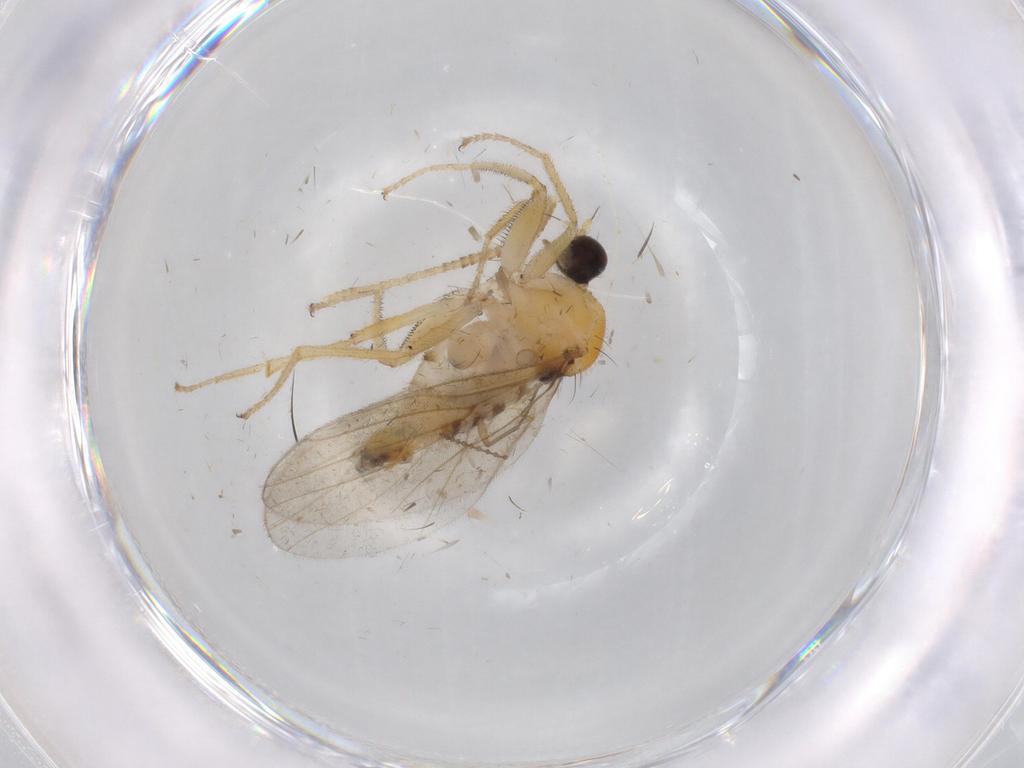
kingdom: Animalia
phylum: Arthropoda
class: Insecta
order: Diptera
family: Hybotidae
